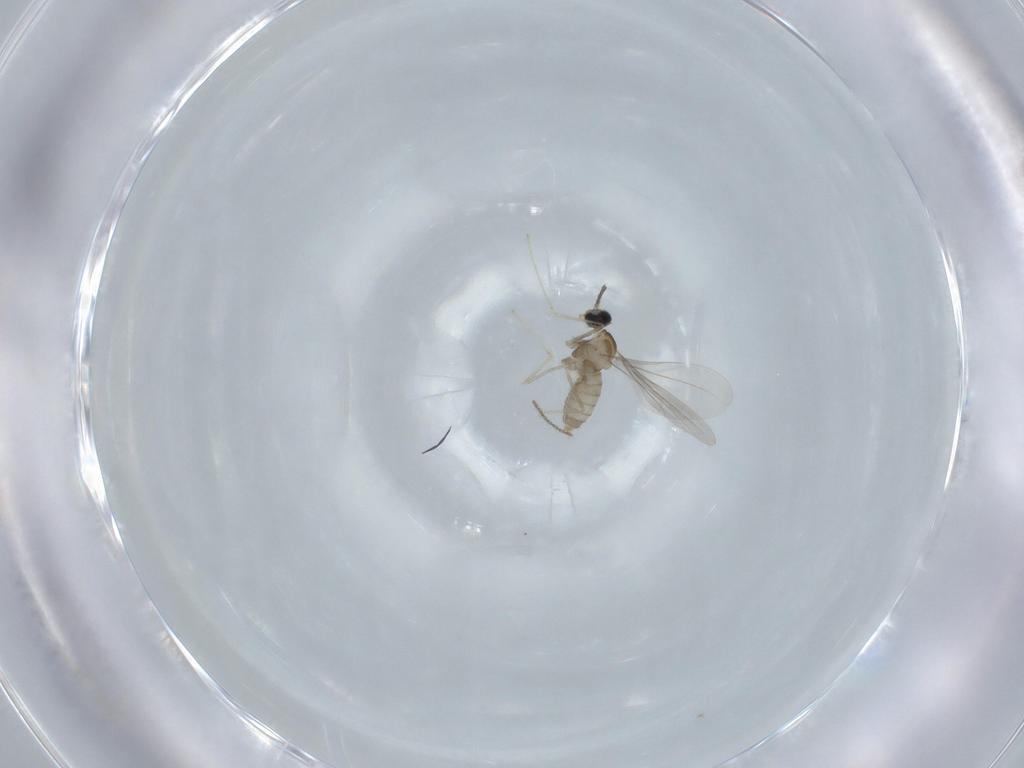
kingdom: Animalia
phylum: Arthropoda
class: Insecta
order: Diptera
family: Cecidomyiidae
